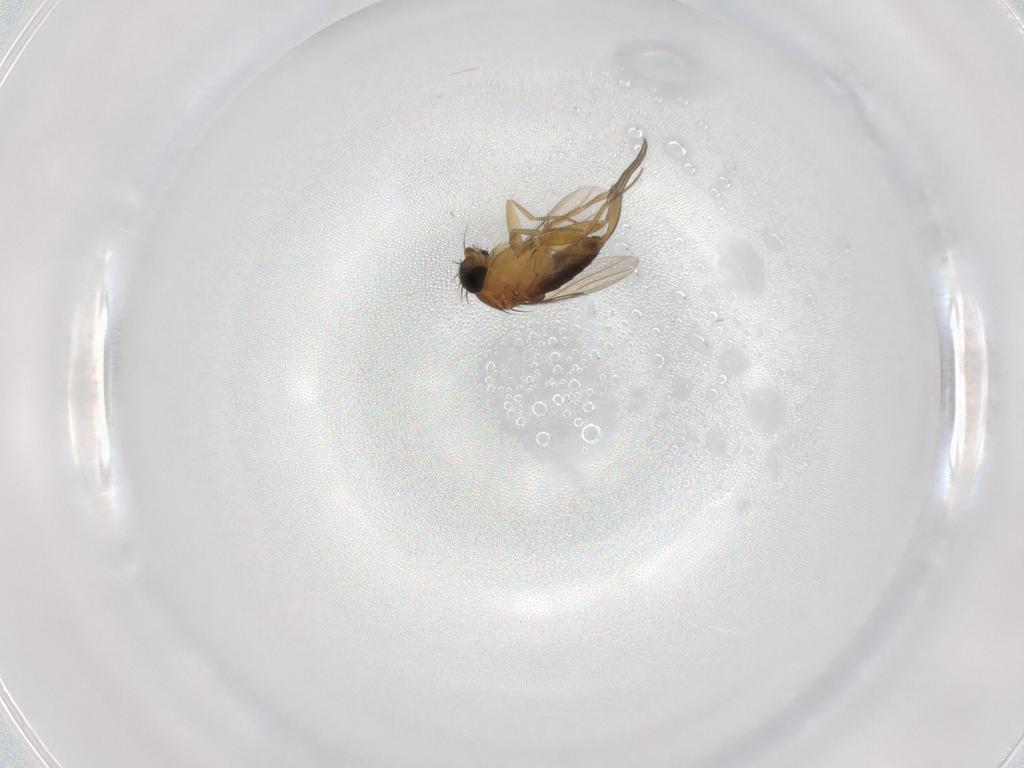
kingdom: Animalia
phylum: Arthropoda
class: Insecta
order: Diptera
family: Phoridae
